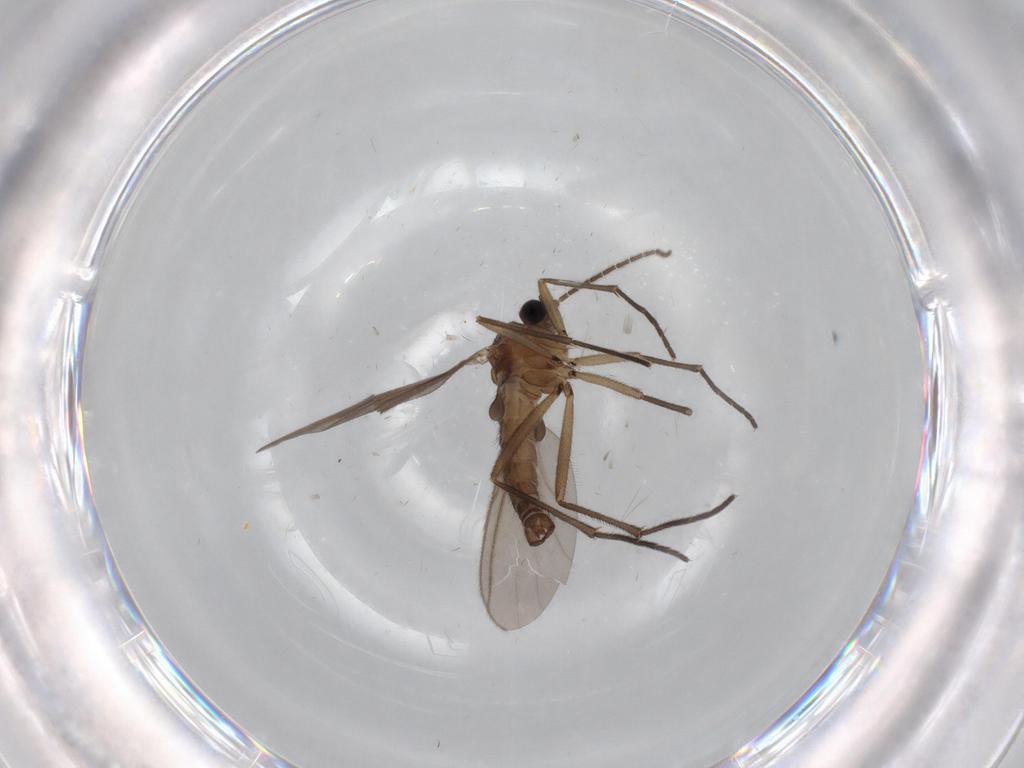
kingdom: Animalia
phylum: Arthropoda
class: Insecta
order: Diptera
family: Sciaridae
